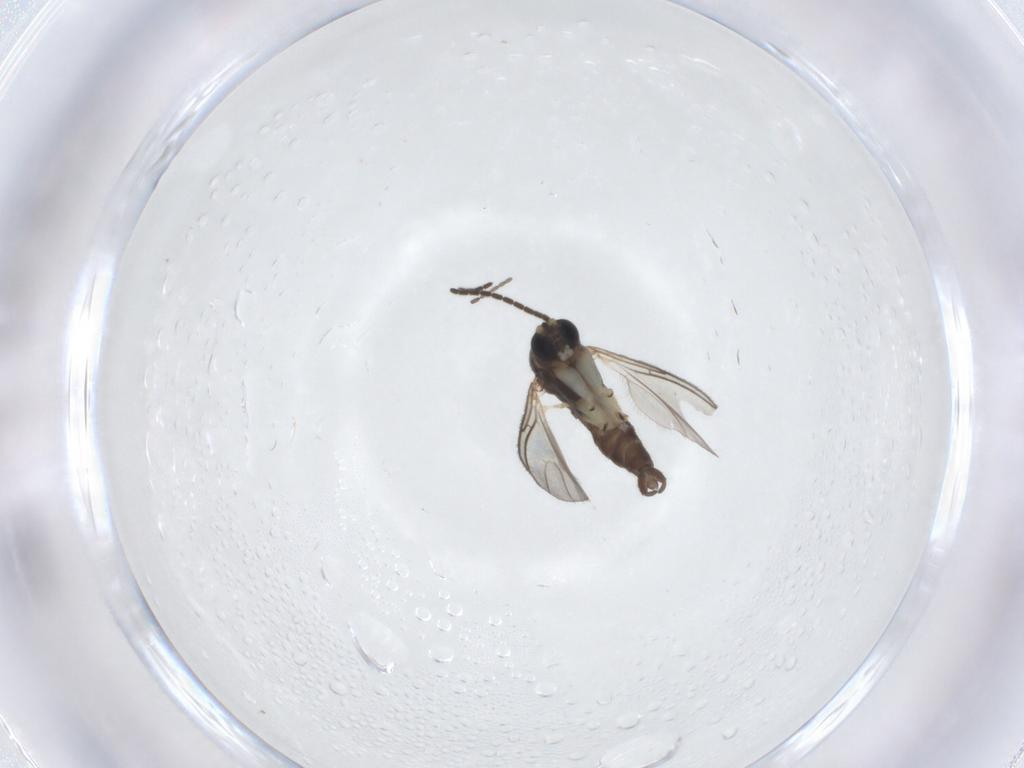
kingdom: Animalia
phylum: Arthropoda
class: Insecta
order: Diptera
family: Sciaridae
